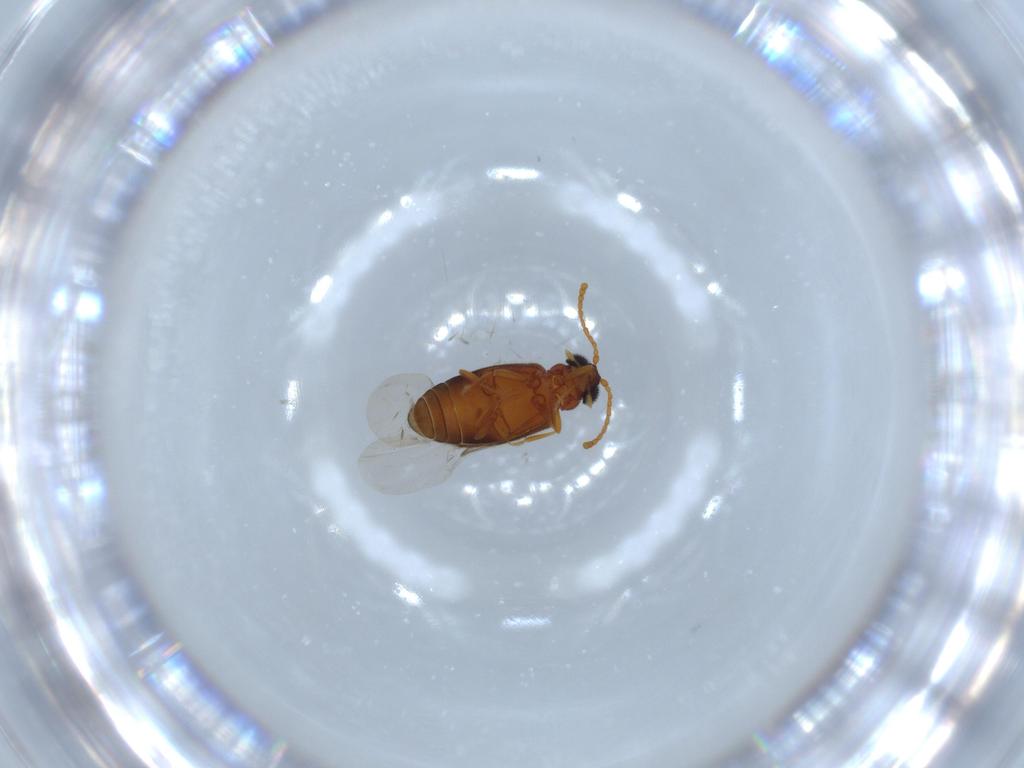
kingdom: Animalia
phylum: Arthropoda
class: Insecta
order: Coleoptera
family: Aderidae
